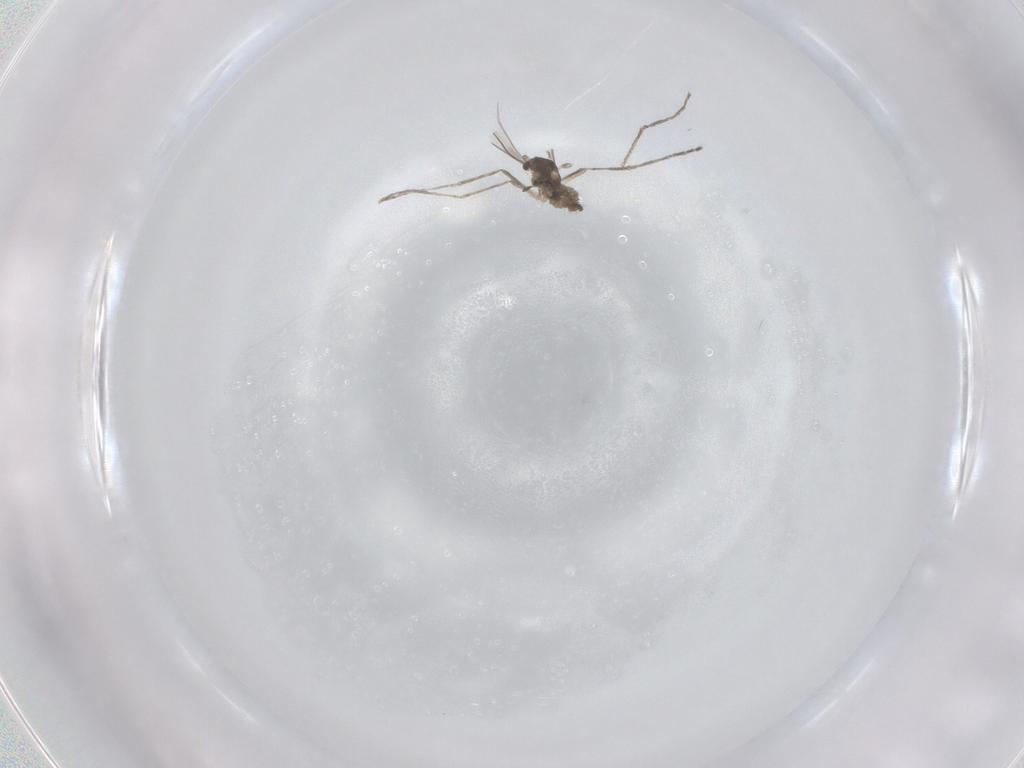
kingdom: Animalia
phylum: Arthropoda
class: Insecta
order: Diptera
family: Cecidomyiidae
